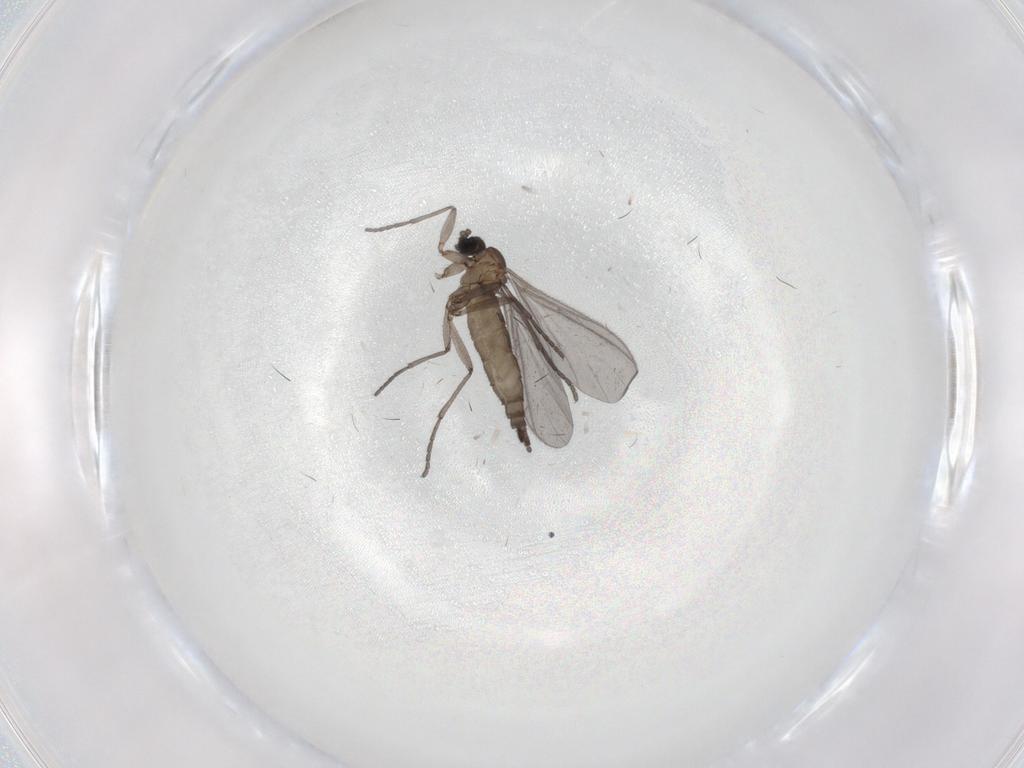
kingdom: Animalia
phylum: Arthropoda
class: Insecta
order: Diptera
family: Sciaridae
